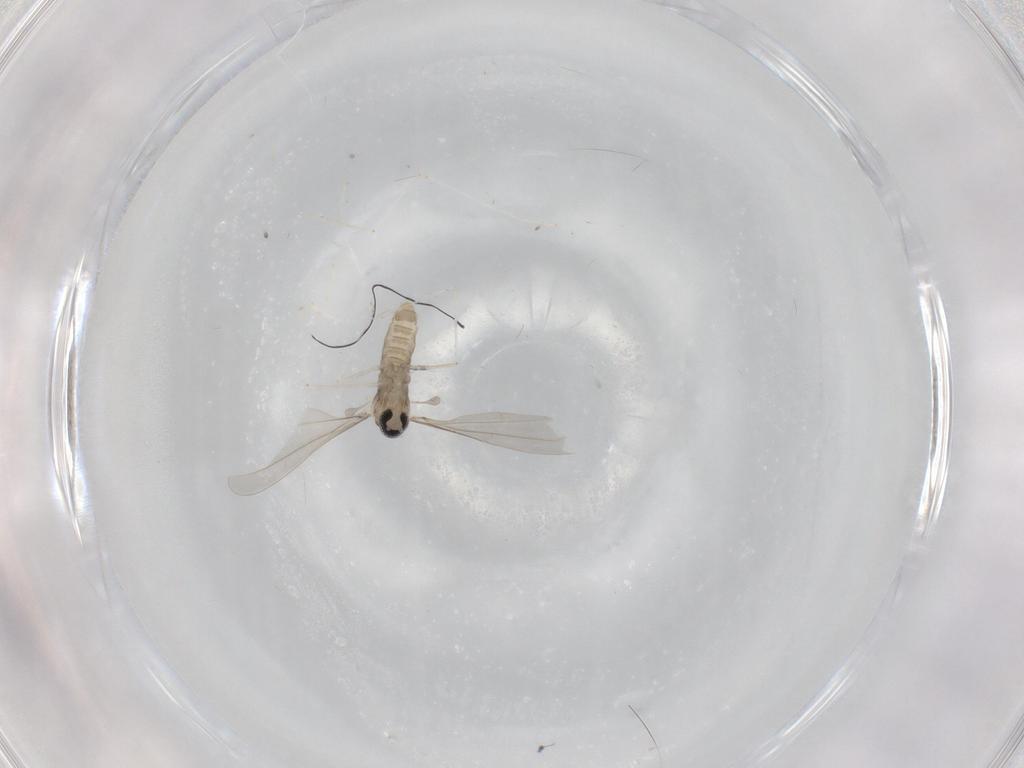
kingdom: Animalia
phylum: Arthropoda
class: Insecta
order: Diptera
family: Cecidomyiidae
